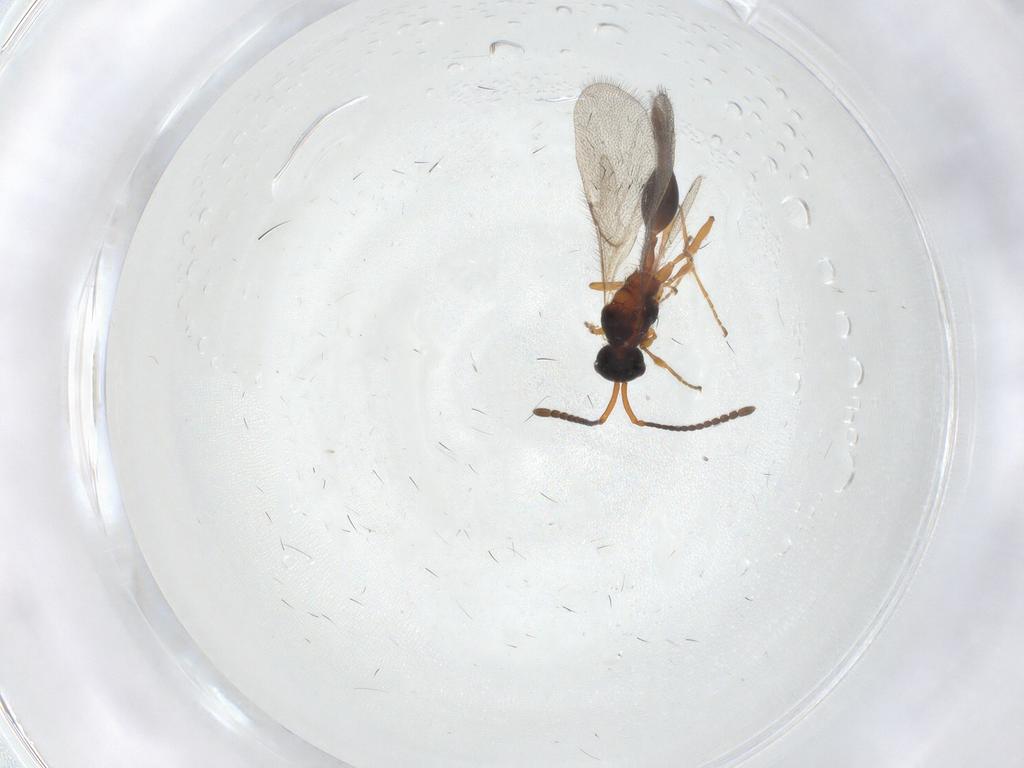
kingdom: Animalia
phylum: Arthropoda
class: Insecta
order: Hymenoptera
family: Diapriidae
